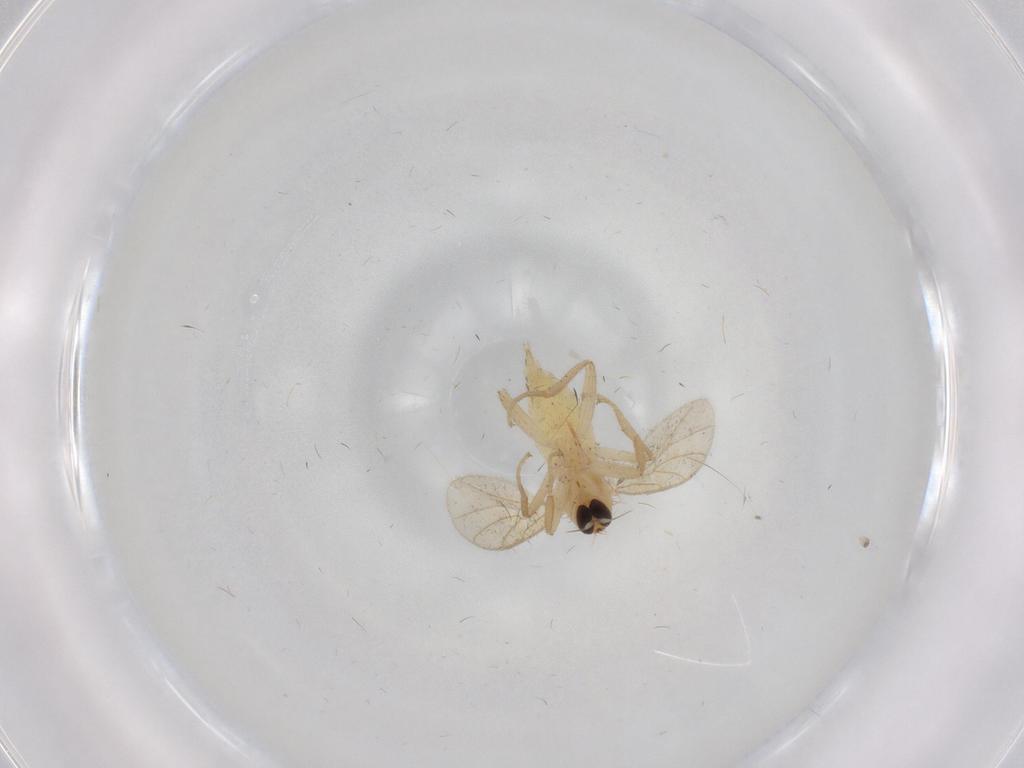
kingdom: Animalia
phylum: Arthropoda
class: Insecta
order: Diptera
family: Hybotidae
